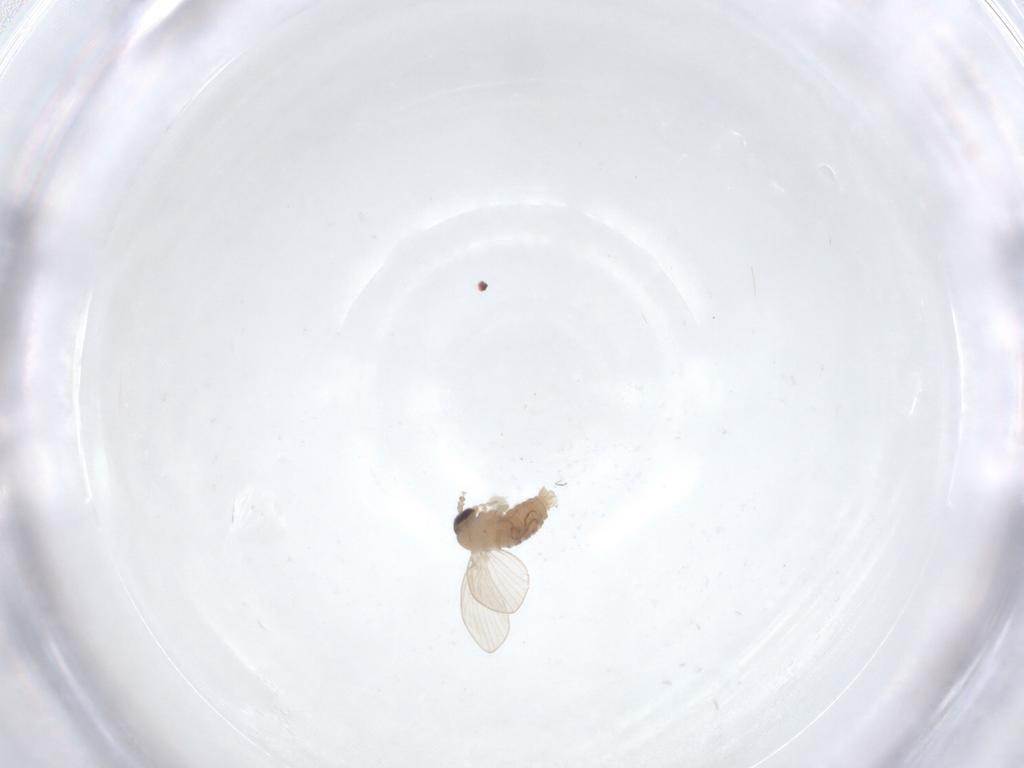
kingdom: Animalia
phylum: Arthropoda
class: Insecta
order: Diptera
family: Psychodidae
